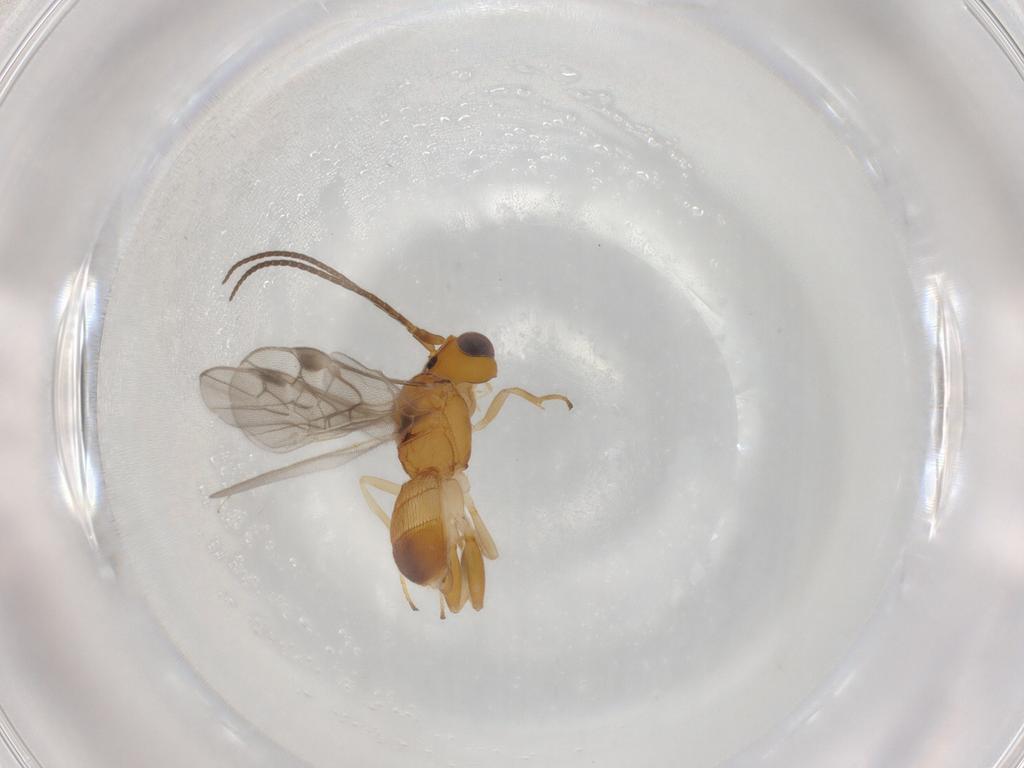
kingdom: Animalia
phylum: Arthropoda
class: Insecta
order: Hymenoptera
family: Braconidae
